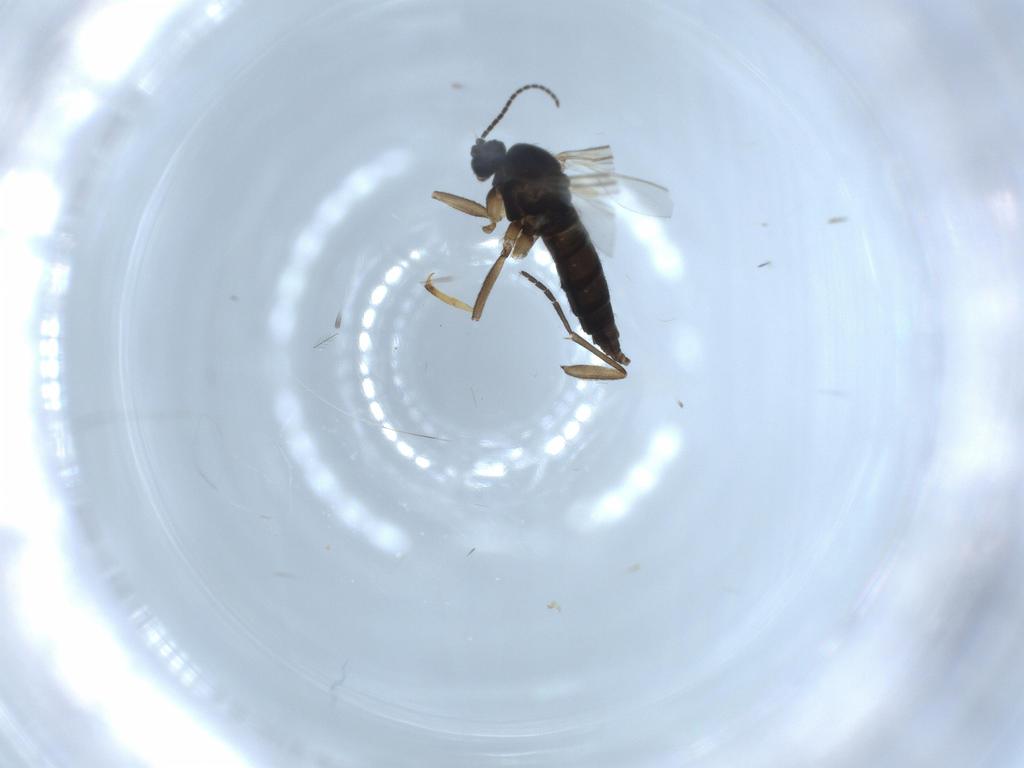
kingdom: Animalia
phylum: Arthropoda
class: Insecta
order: Diptera
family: Sciaridae
